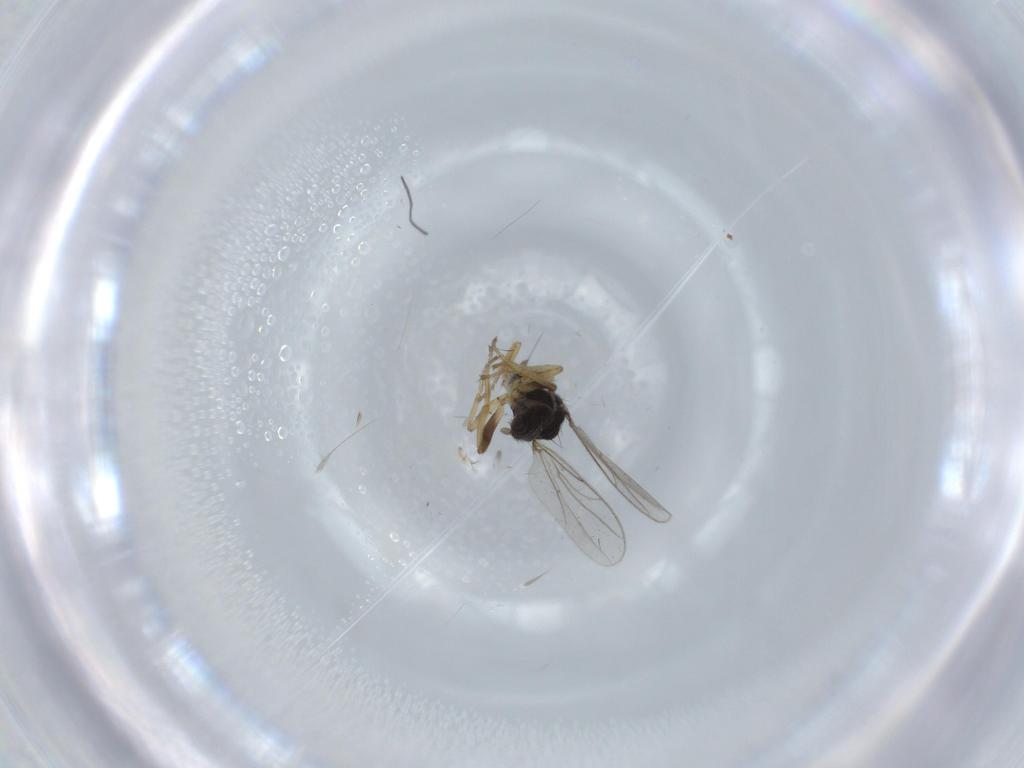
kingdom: Animalia
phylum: Arthropoda
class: Insecta
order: Diptera
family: Hybotidae
